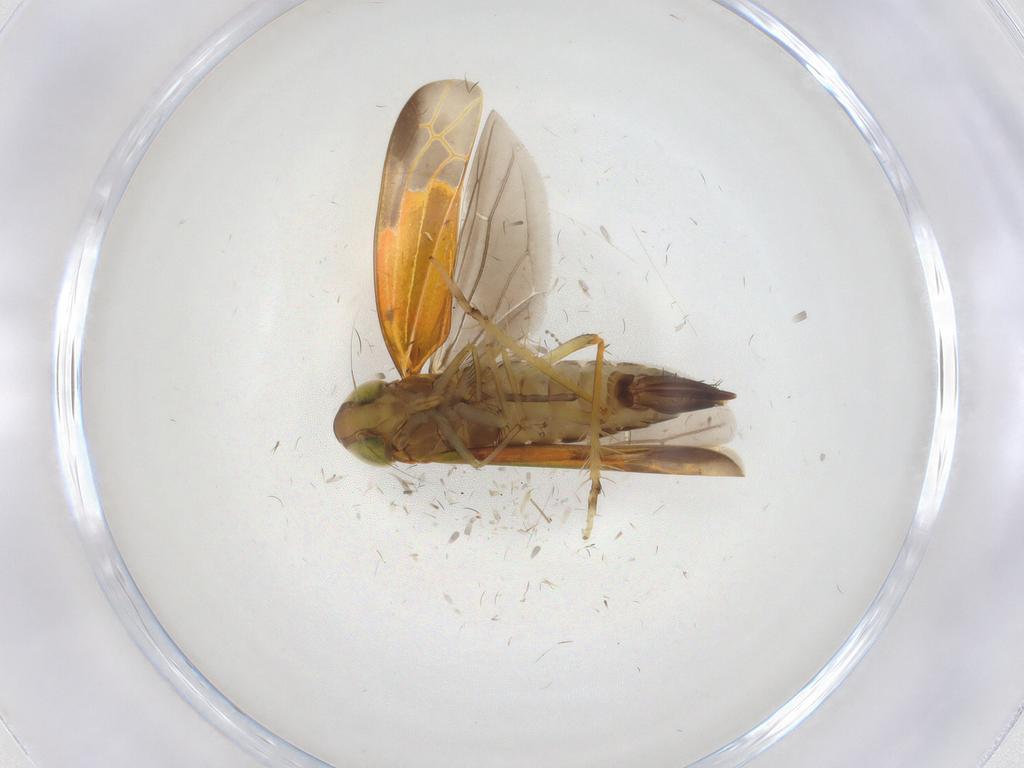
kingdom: Animalia
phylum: Arthropoda
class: Insecta
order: Hemiptera
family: Cicadellidae
